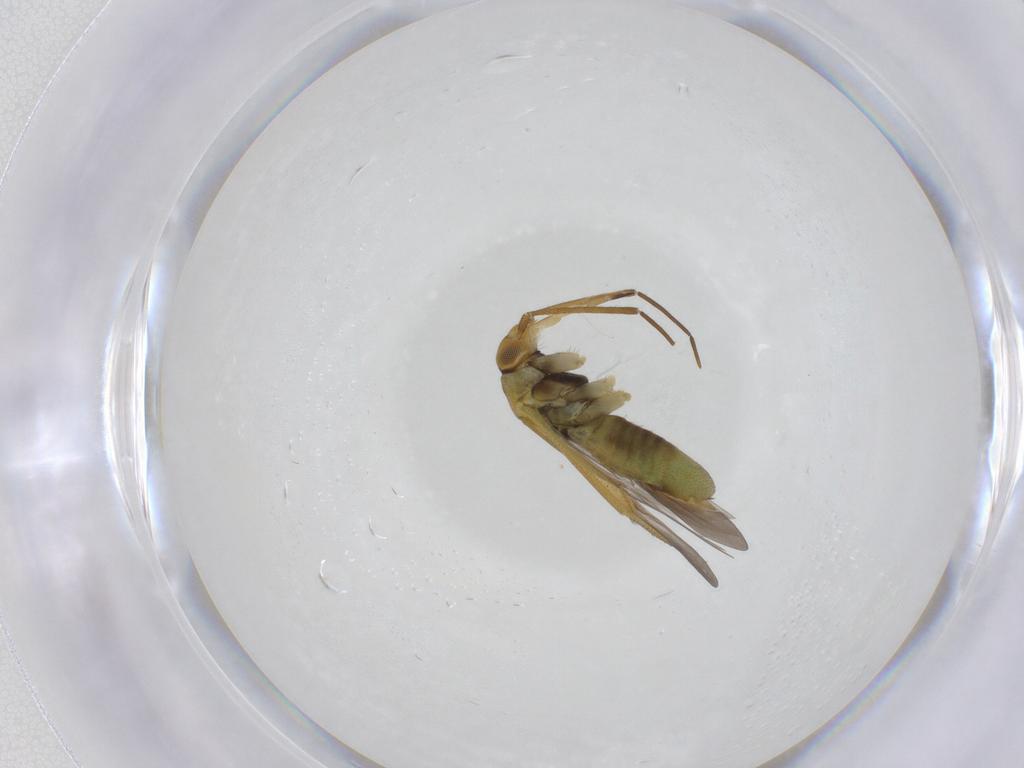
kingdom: Animalia
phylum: Arthropoda
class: Insecta
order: Hemiptera
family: Miridae
